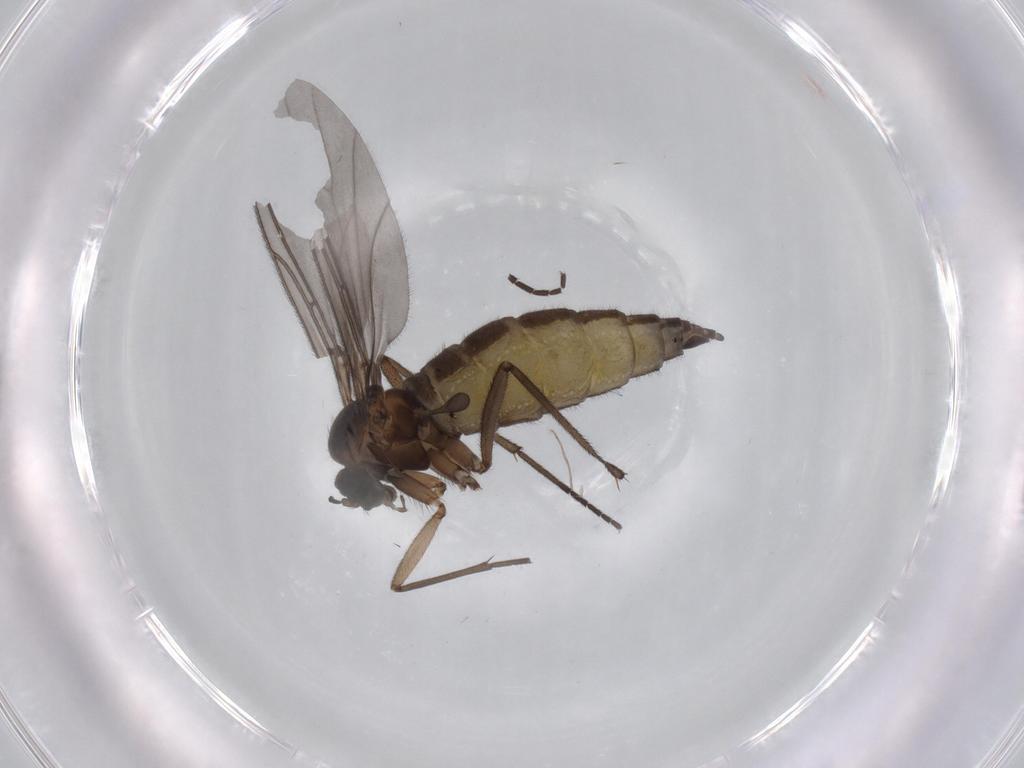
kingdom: Animalia
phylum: Arthropoda
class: Insecta
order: Diptera
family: Sciaridae
